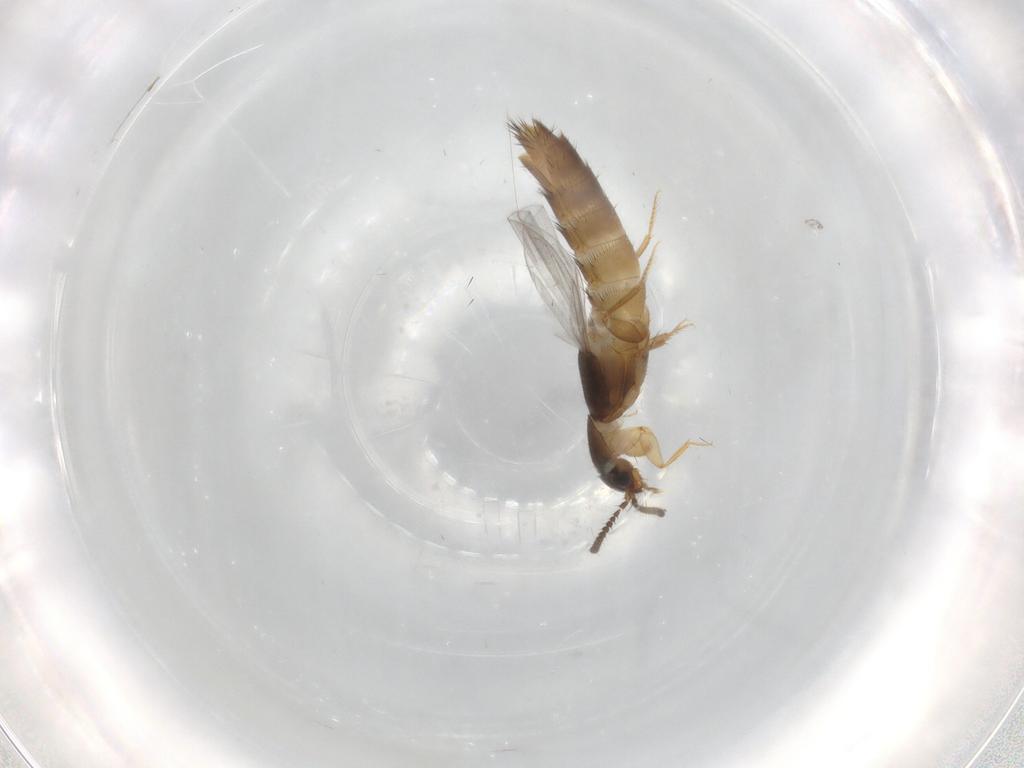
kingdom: Animalia
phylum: Arthropoda
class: Insecta
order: Coleoptera
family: Staphylinidae
